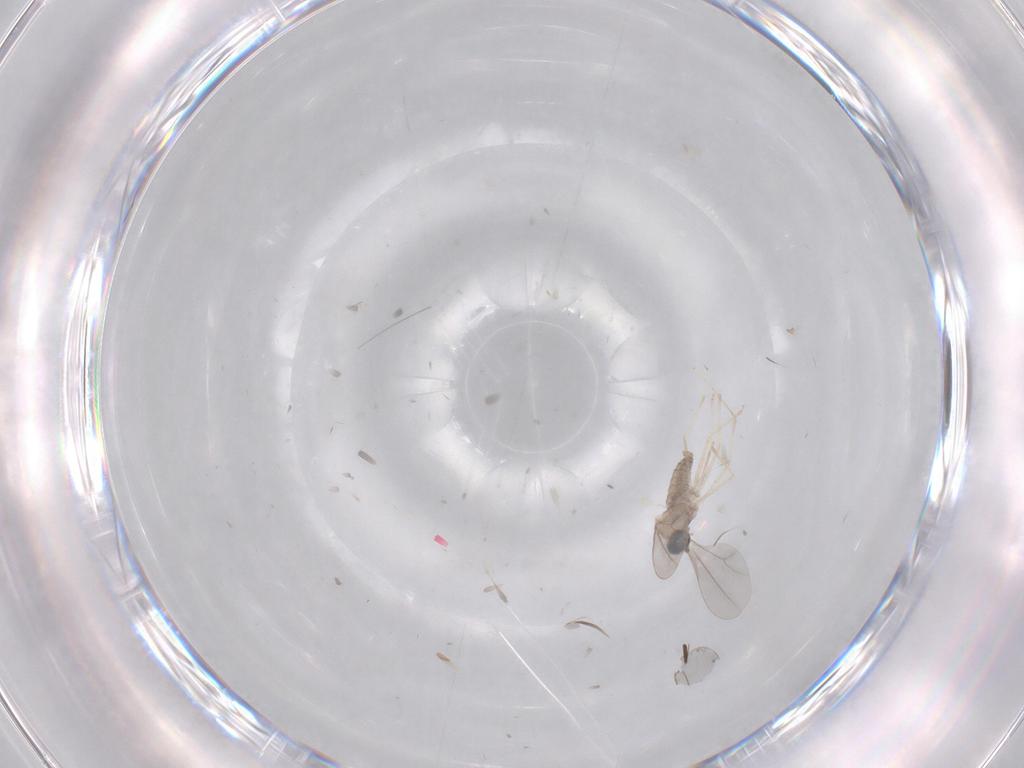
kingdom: Animalia
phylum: Arthropoda
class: Insecta
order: Diptera
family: Cecidomyiidae
